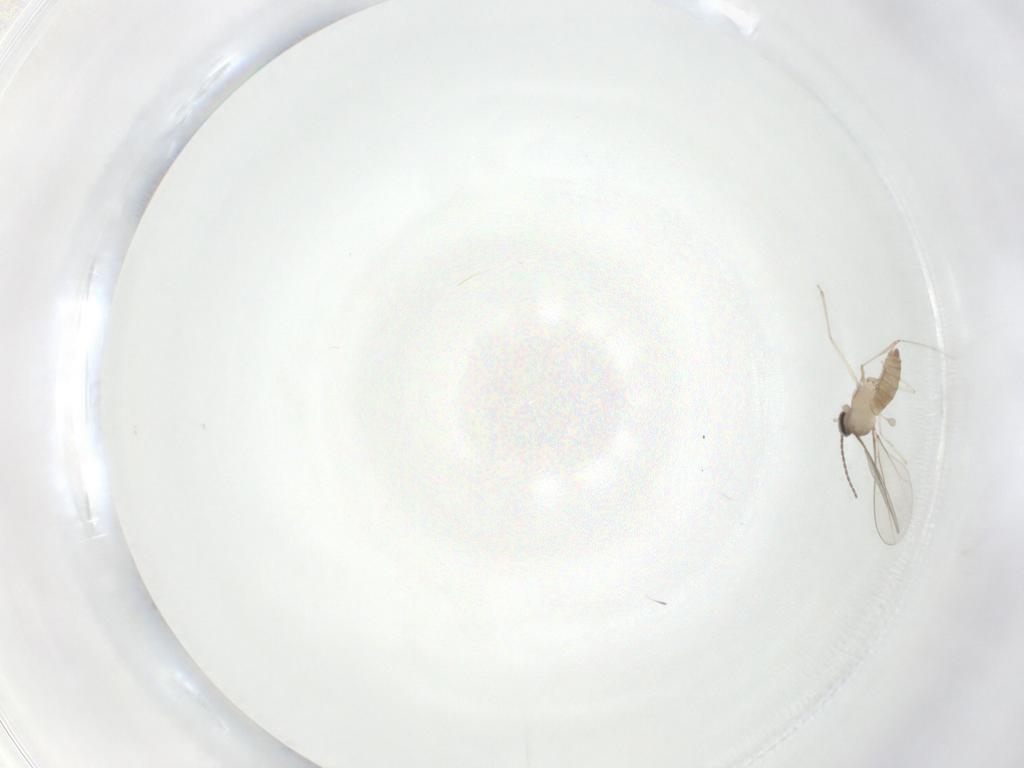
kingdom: Animalia
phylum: Arthropoda
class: Insecta
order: Diptera
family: Cecidomyiidae
